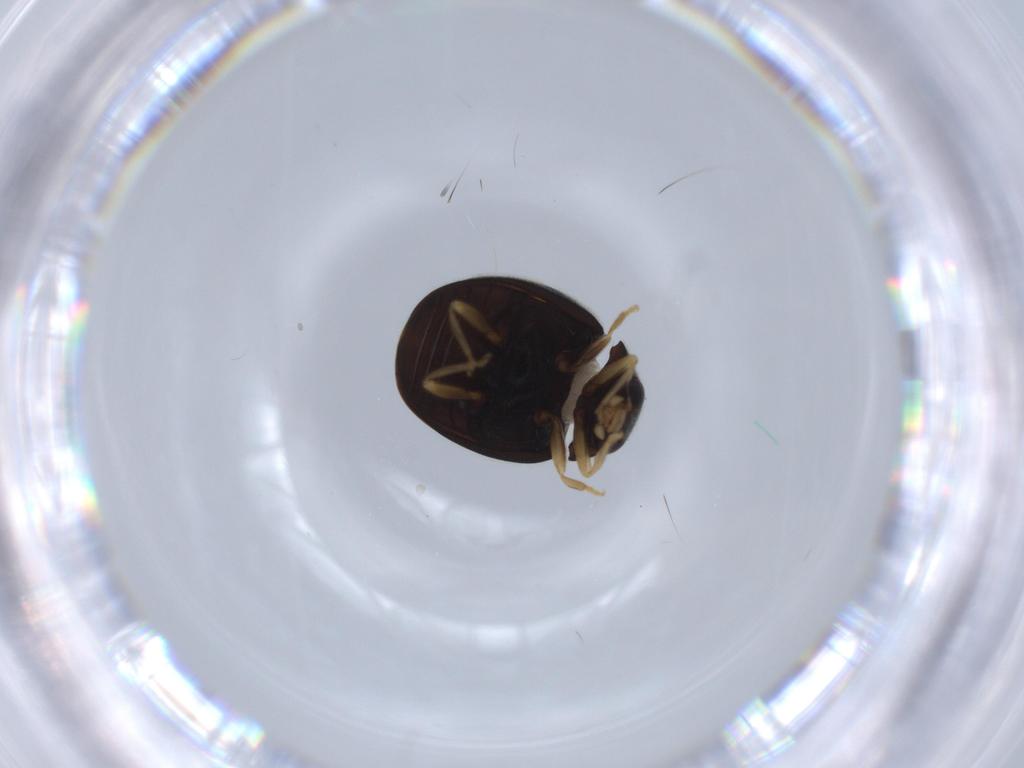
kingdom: Animalia
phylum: Arthropoda
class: Insecta
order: Coleoptera
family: Coccinellidae
